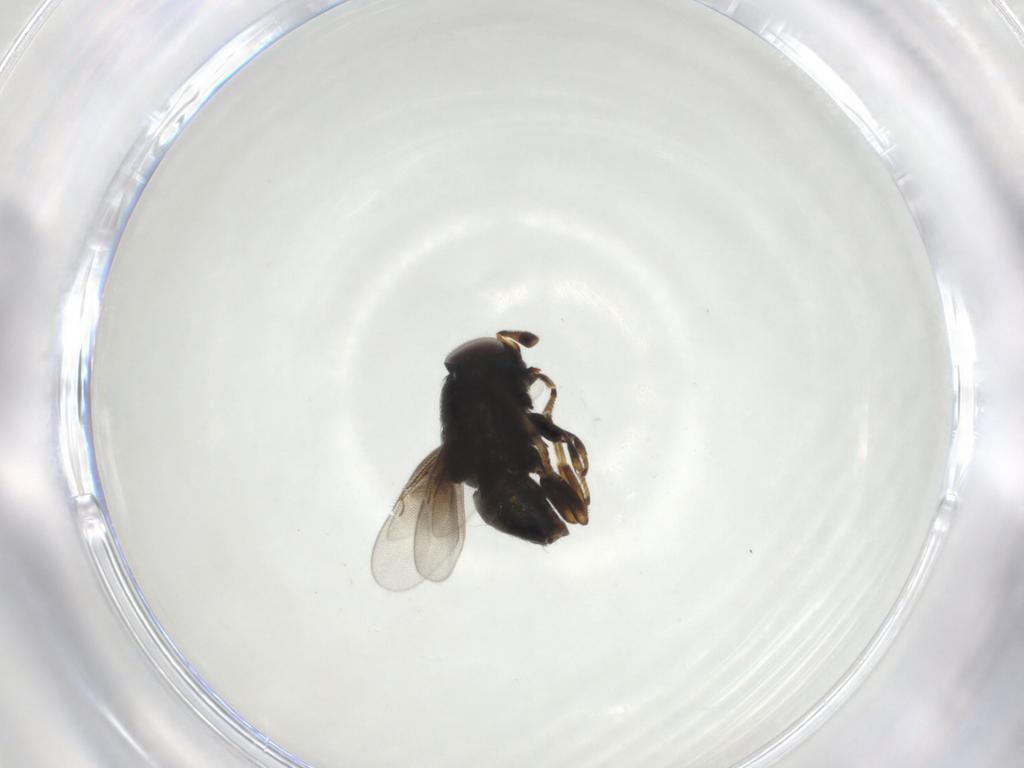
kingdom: Animalia
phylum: Arthropoda
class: Insecta
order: Hymenoptera
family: Encyrtidae
